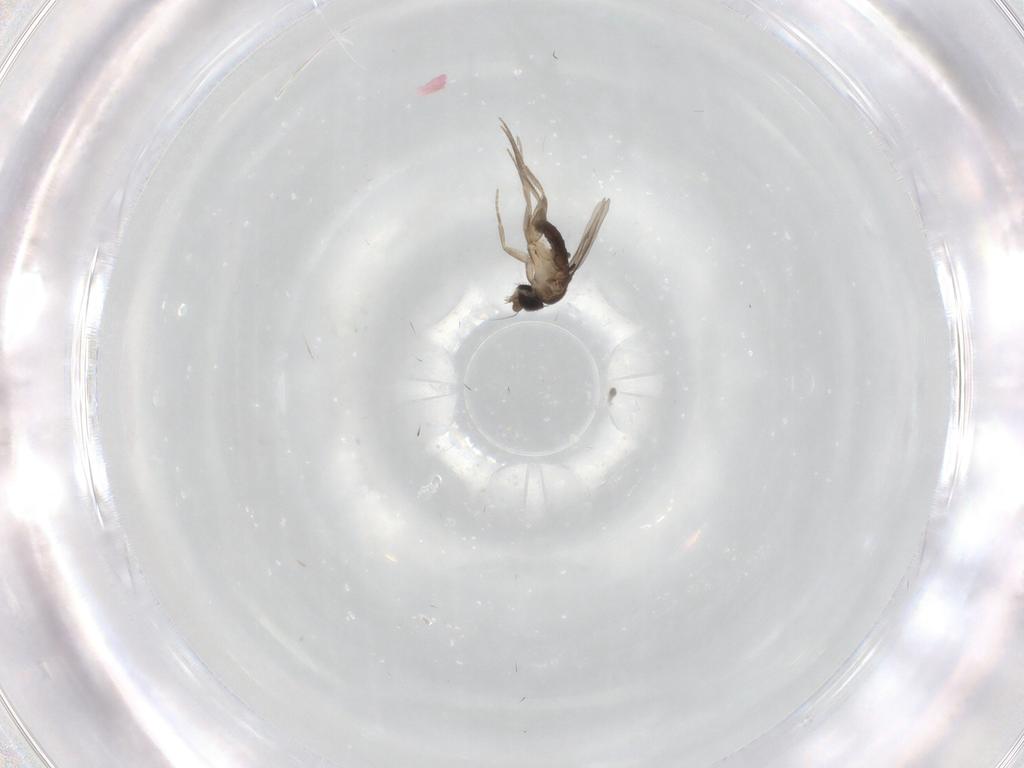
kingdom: Animalia
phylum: Arthropoda
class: Insecta
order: Diptera
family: Phoridae
